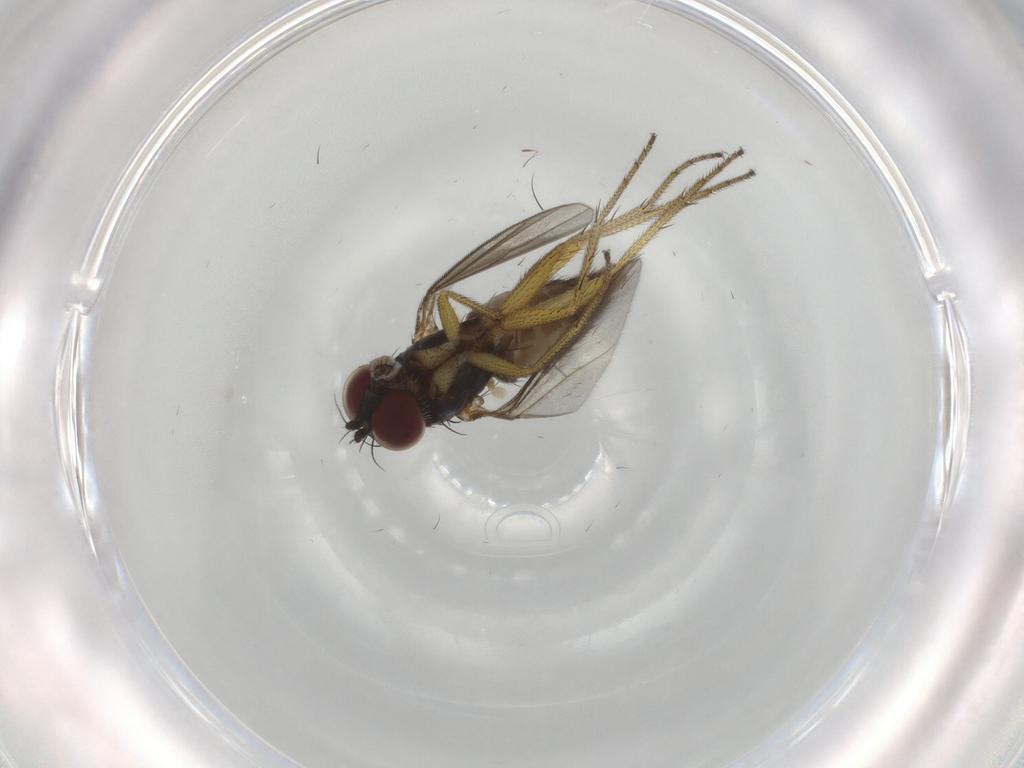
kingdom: Animalia
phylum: Arthropoda
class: Insecta
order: Diptera
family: Dolichopodidae
